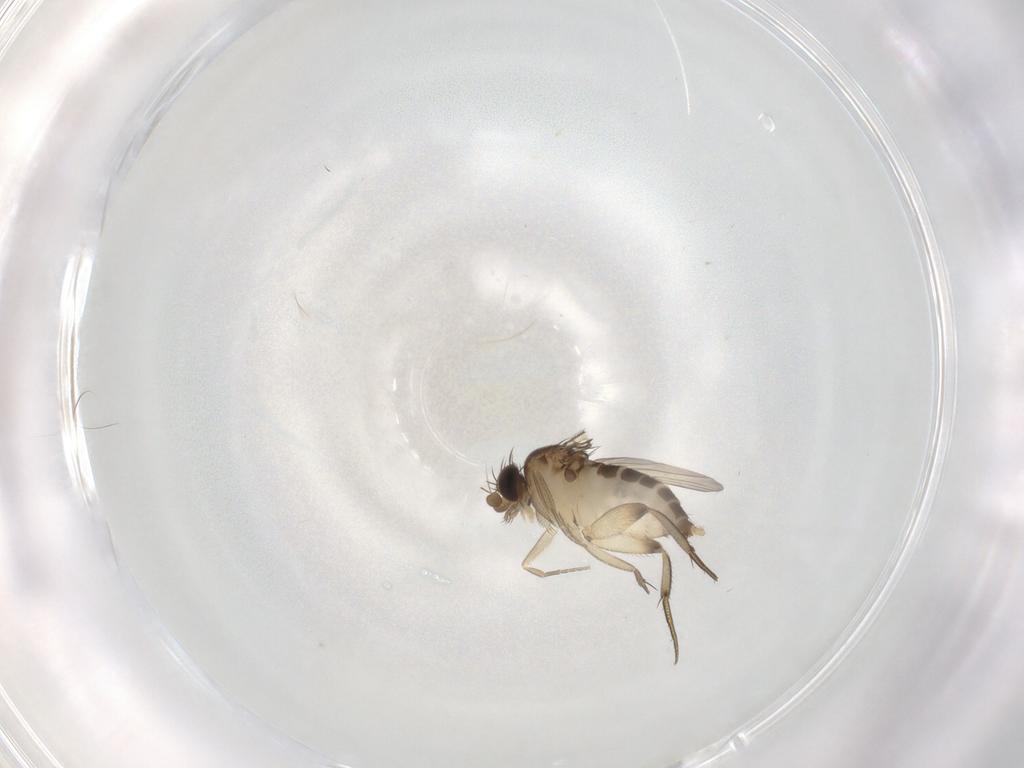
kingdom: Animalia
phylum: Arthropoda
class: Insecta
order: Diptera
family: Phoridae
